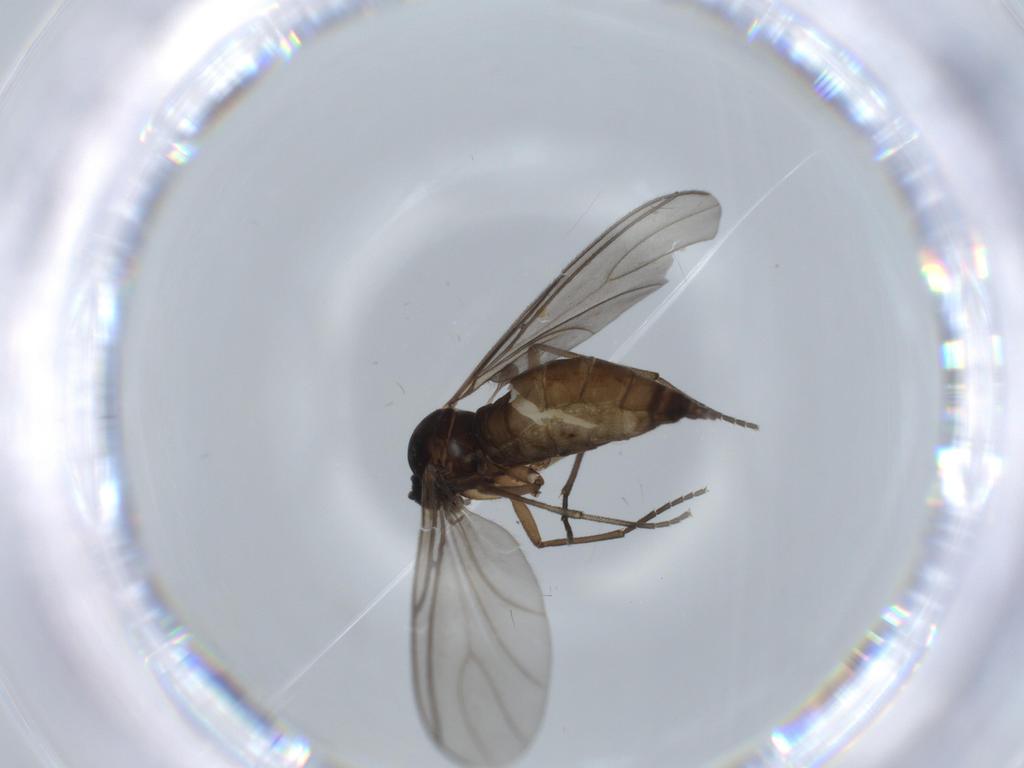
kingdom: Animalia
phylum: Arthropoda
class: Insecta
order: Diptera
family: Sciaridae
